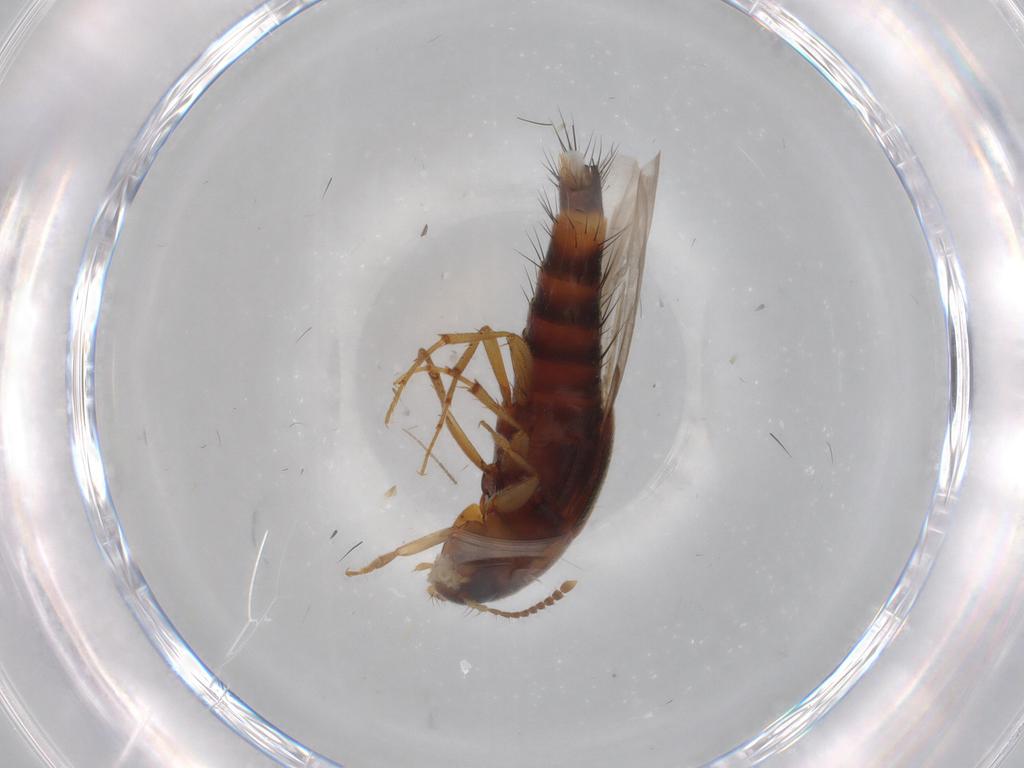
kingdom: Animalia
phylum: Arthropoda
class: Insecta
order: Coleoptera
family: Staphylinidae
